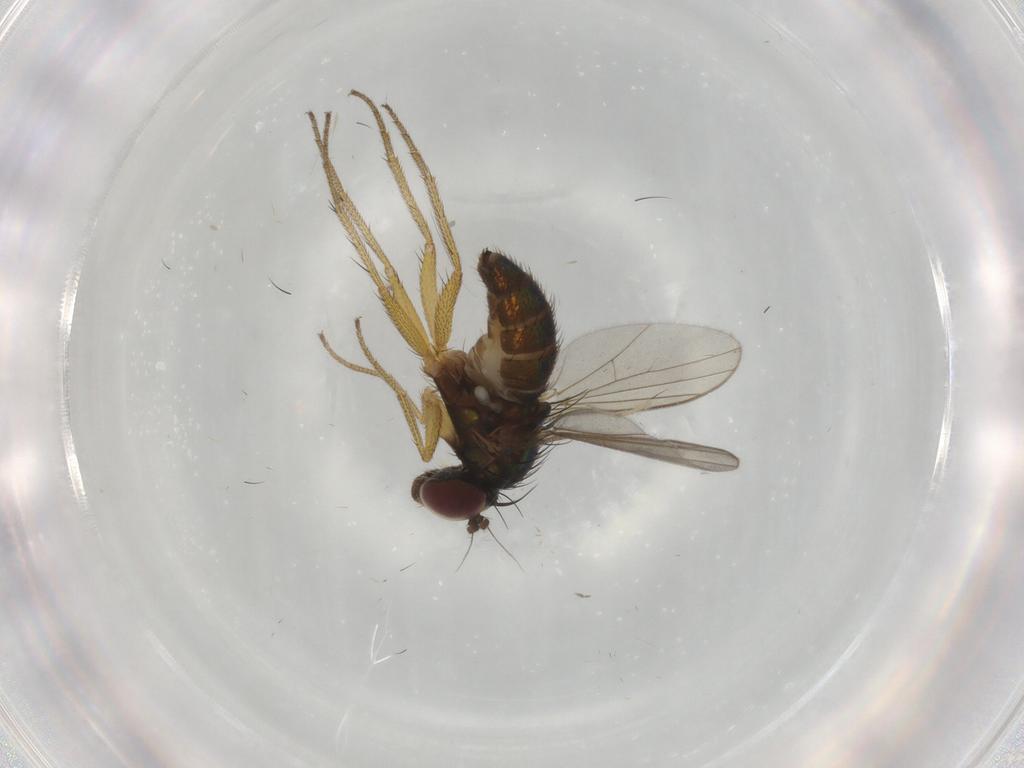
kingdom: Animalia
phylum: Arthropoda
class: Insecta
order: Diptera
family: Dolichopodidae
